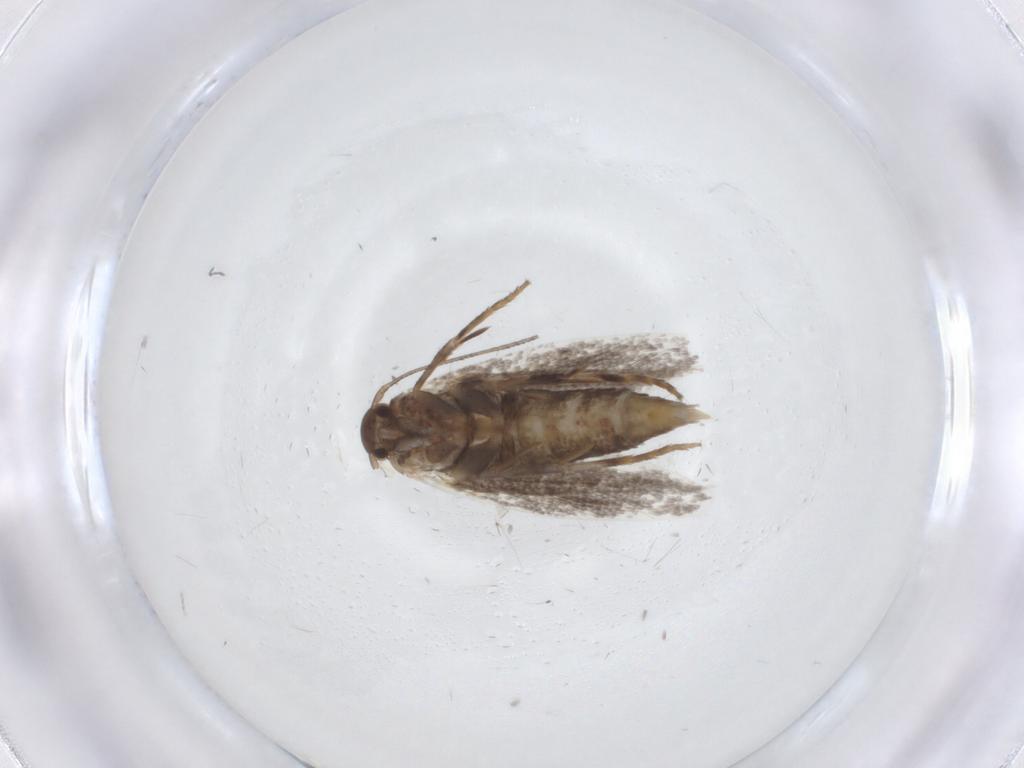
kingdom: Animalia
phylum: Arthropoda
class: Insecta
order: Lepidoptera
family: Elachistidae
